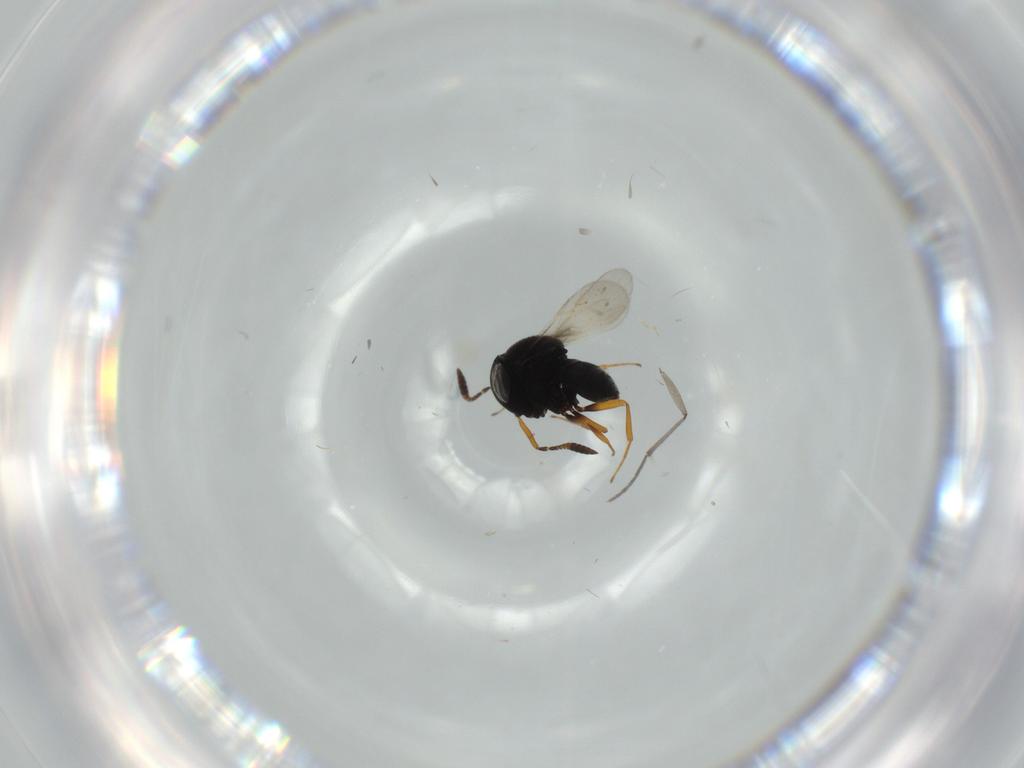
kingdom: Animalia
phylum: Arthropoda
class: Insecta
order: Hymenoptera
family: Scelionidae
